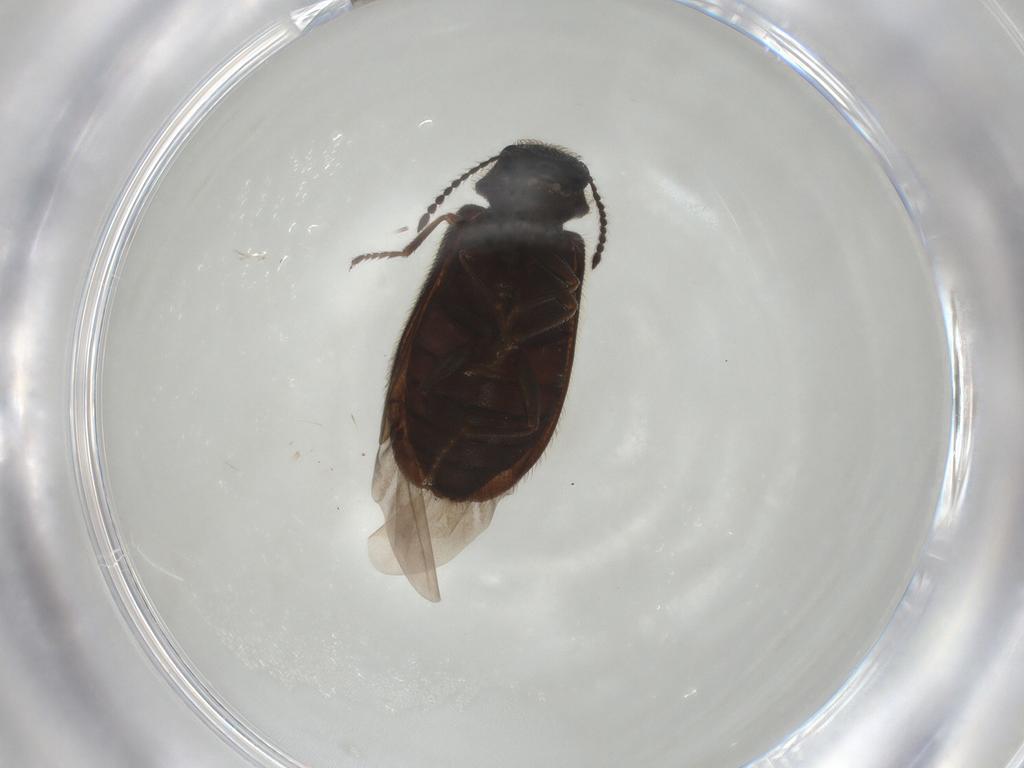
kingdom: Animalia
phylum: Arthropoda
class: Insecta
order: Coleoptera
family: Melyridae
